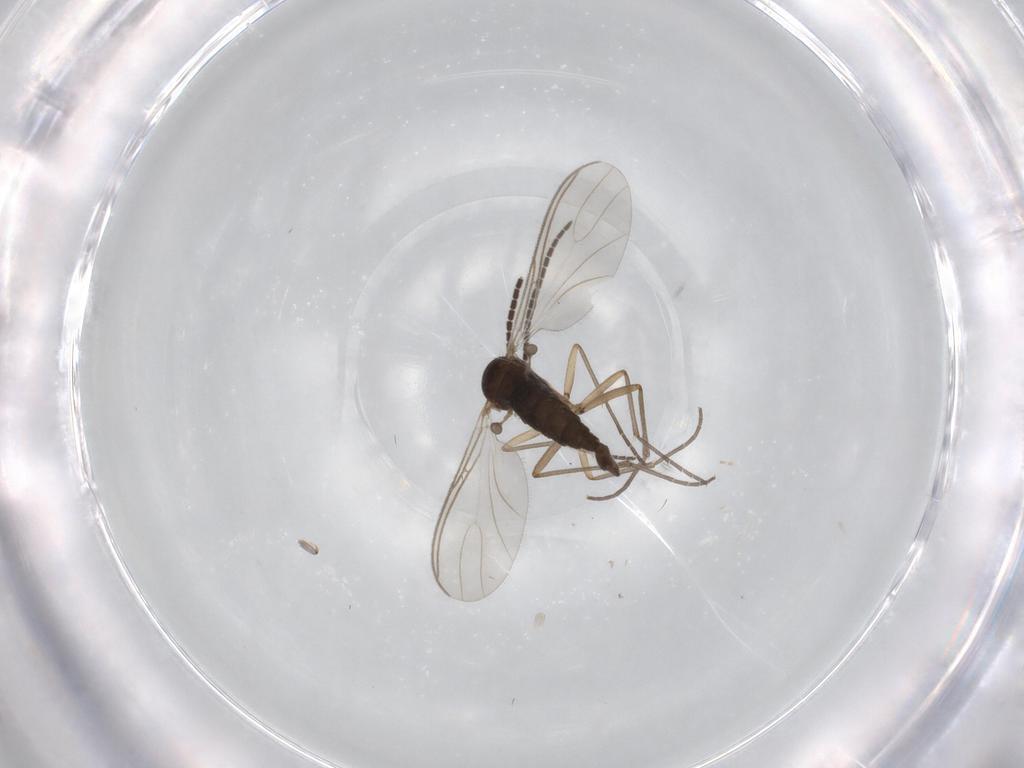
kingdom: Animalia
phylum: Arthropoda
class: Insecta
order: Diptera
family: Sciaridae
